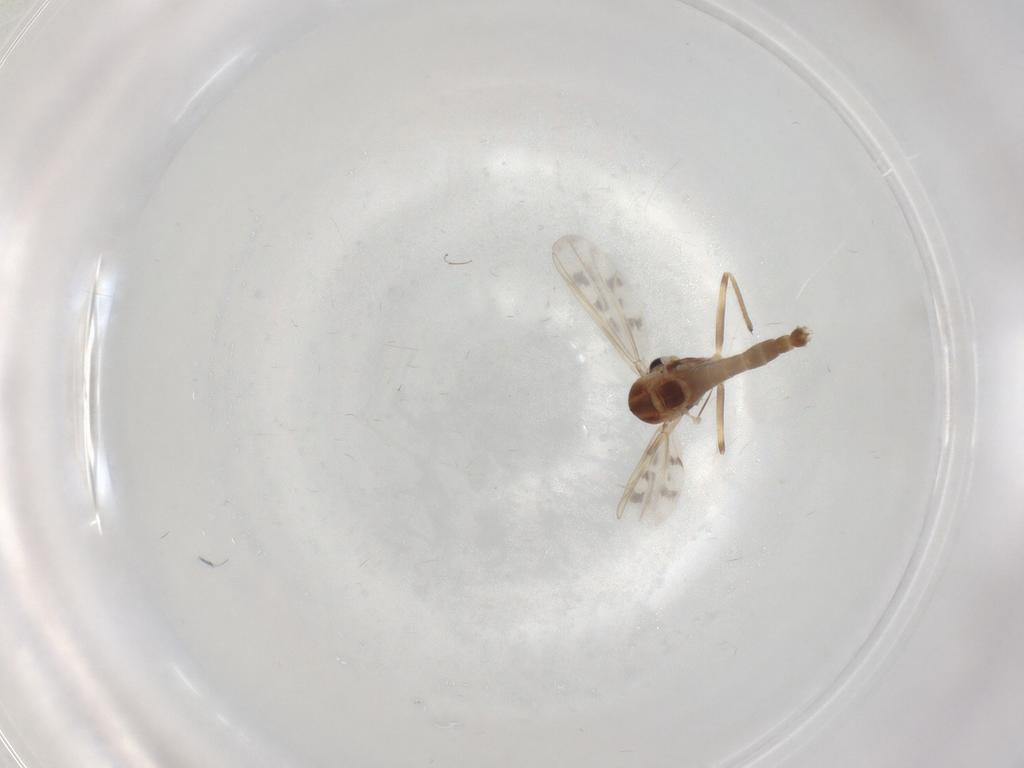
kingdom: Animalia
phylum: Arthropoda
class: Insecta
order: Diptera
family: Chironomidae
